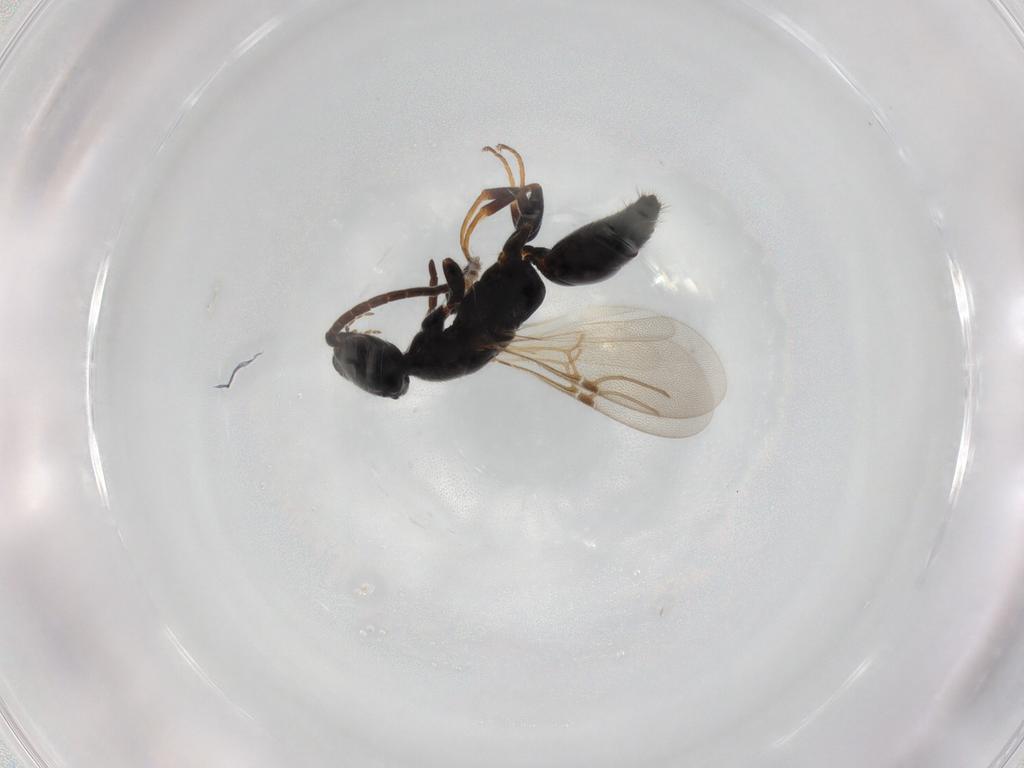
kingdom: Animalia
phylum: Arthropoda
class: Insecta
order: Hymenoptera
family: Bethylidae
